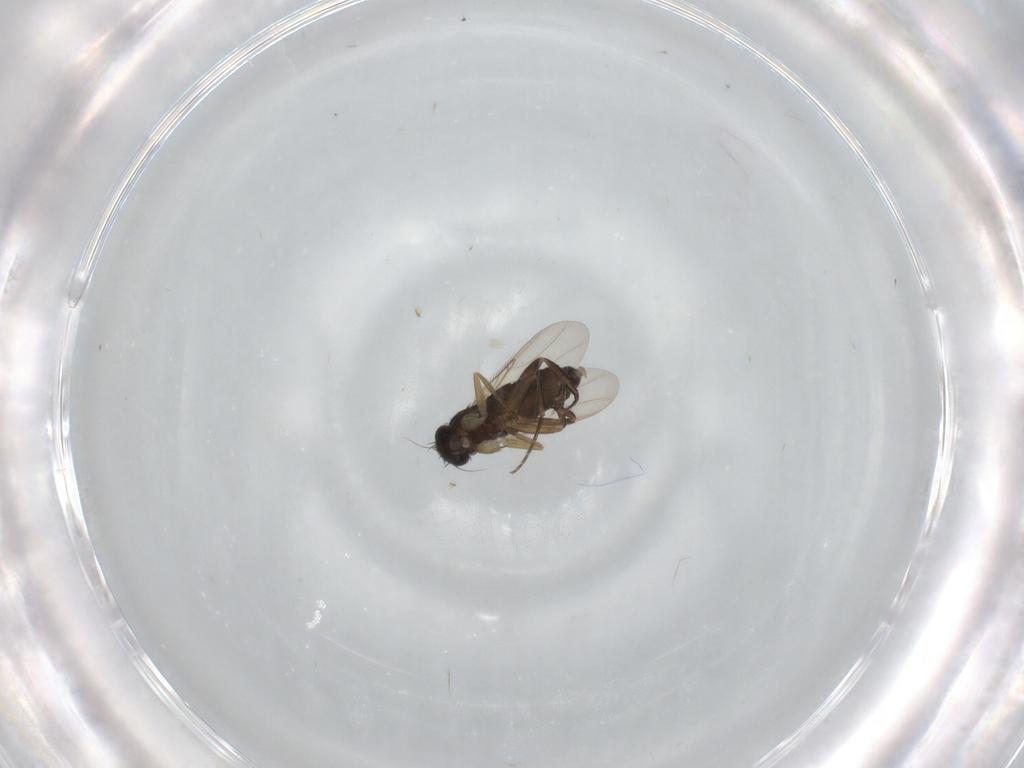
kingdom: Animalia
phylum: Arthropoda
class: Insecta
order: Diptera
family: Phoridae
